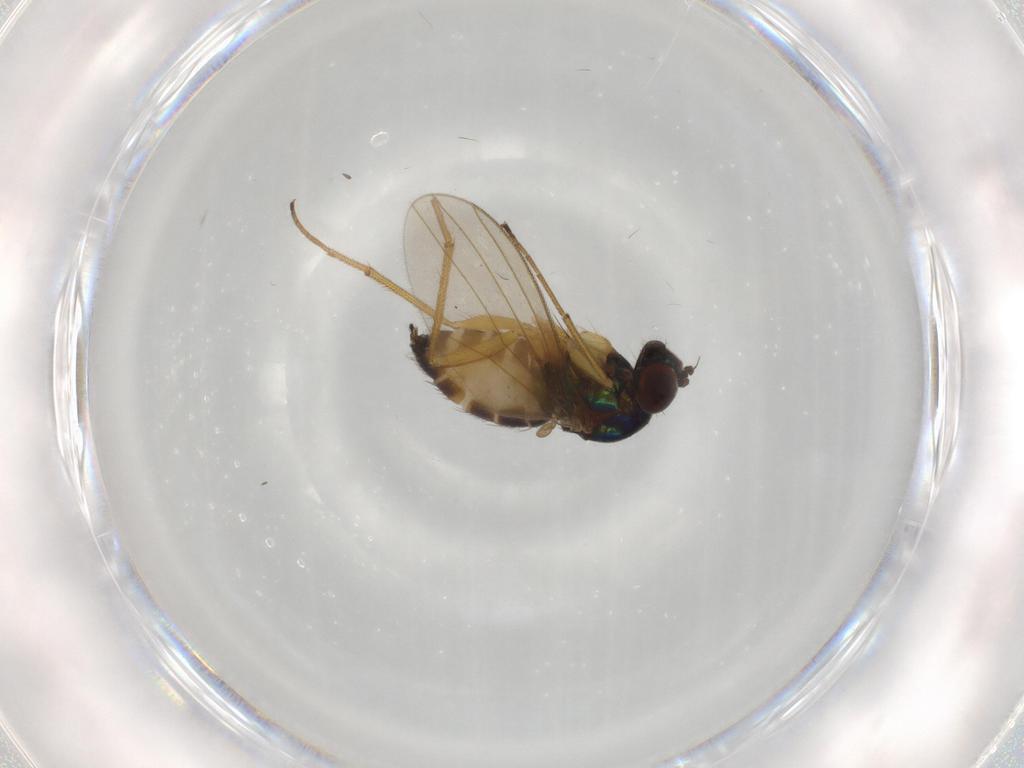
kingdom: Animalia
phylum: Arthropoda
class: Insecta
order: Diptera
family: Dolichopodidae
